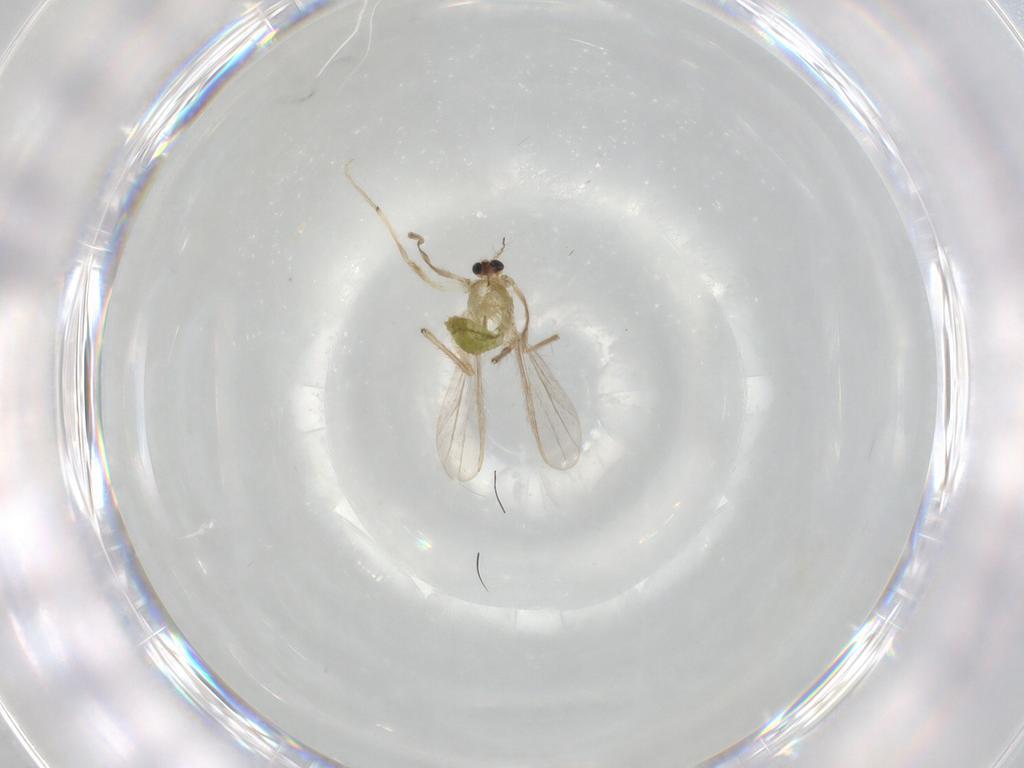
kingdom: Animalia
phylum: Arthropoda
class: Insecta
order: Diptera
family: Chironomidae
